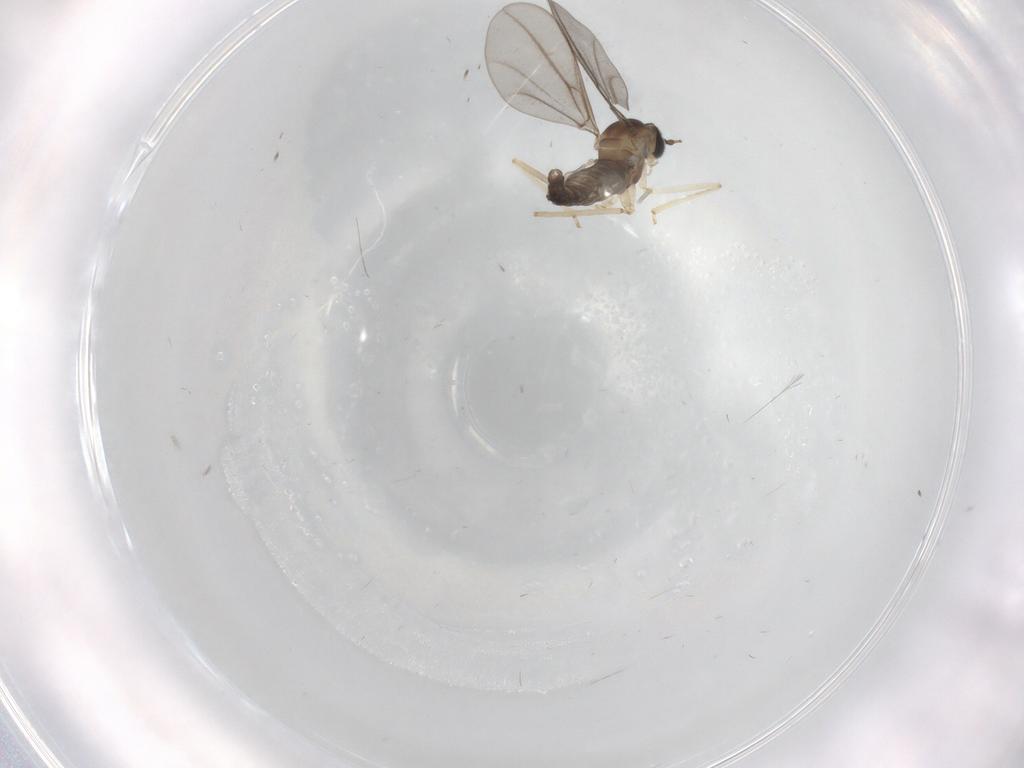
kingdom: Animalia
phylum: Arthropoda
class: Insecta
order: Diptera
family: Cecidomyiidae
